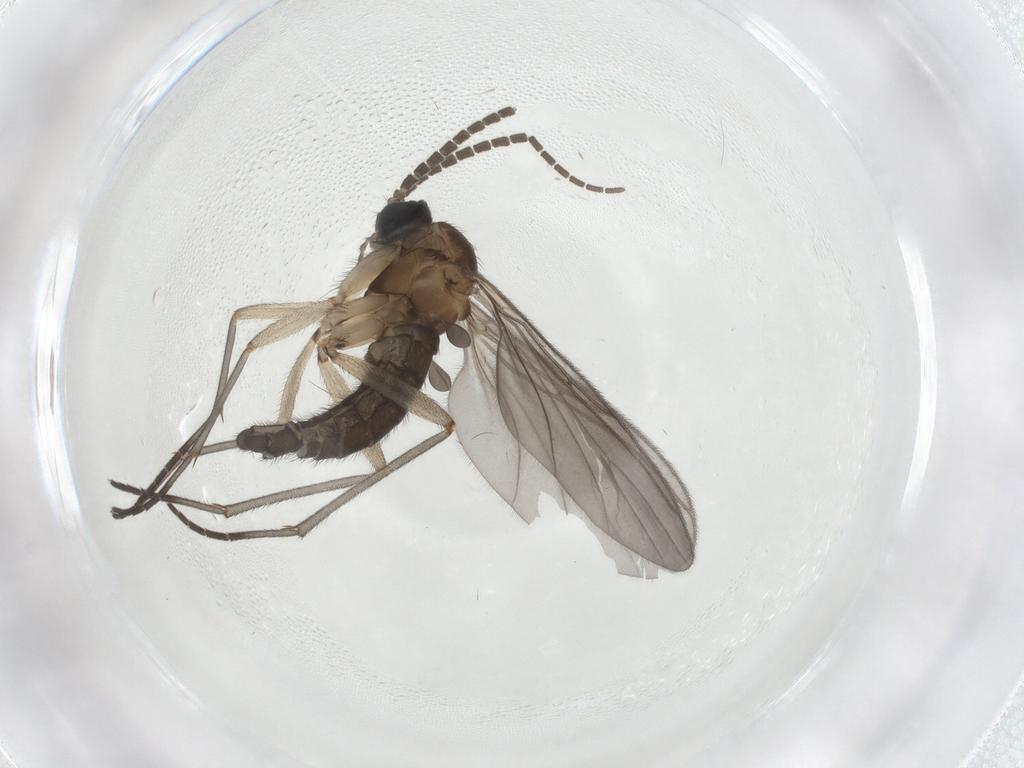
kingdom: Animalia
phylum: Arthropoda
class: Insecta
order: Diptera
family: Sciaridae
